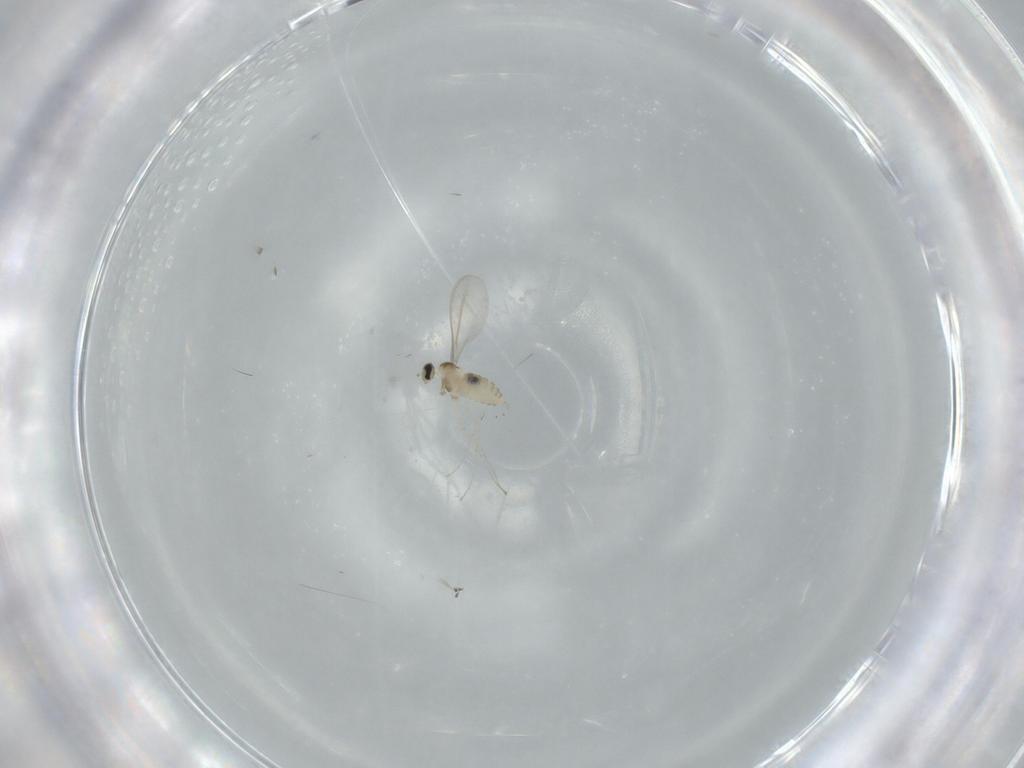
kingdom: Animalia
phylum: Arthropoda
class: Insecta
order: Diptera
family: Cecidomyiidae
